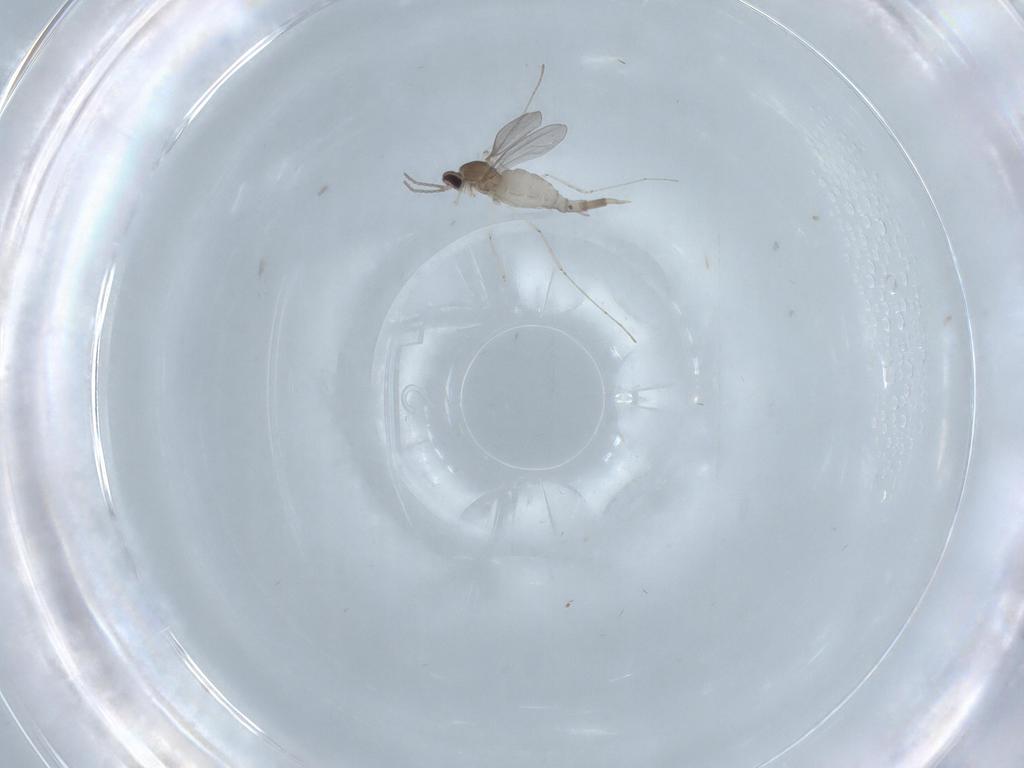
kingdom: Animalia
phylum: Arthropoda
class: Insecta
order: Diptera
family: Cecidomyiidae
